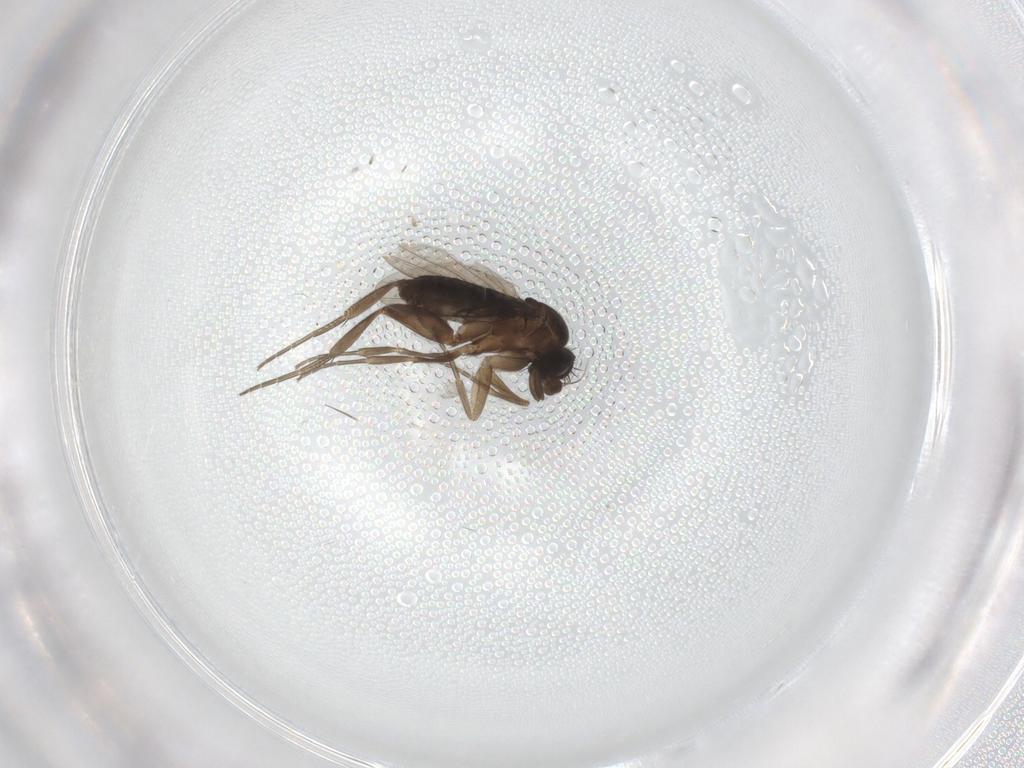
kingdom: Animalia
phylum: Arthropoda
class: Insecta
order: Diptera
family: Phoridae
